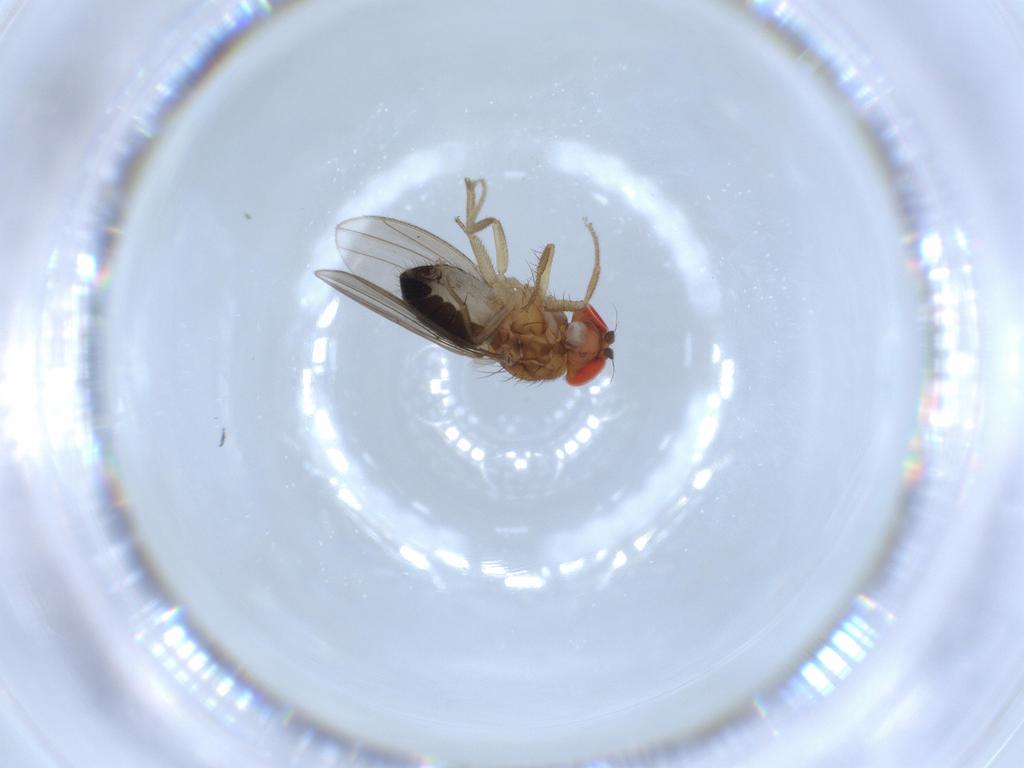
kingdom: Animalia
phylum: Arthropoda
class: Insecta
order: Diptera
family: Drosophilidae
